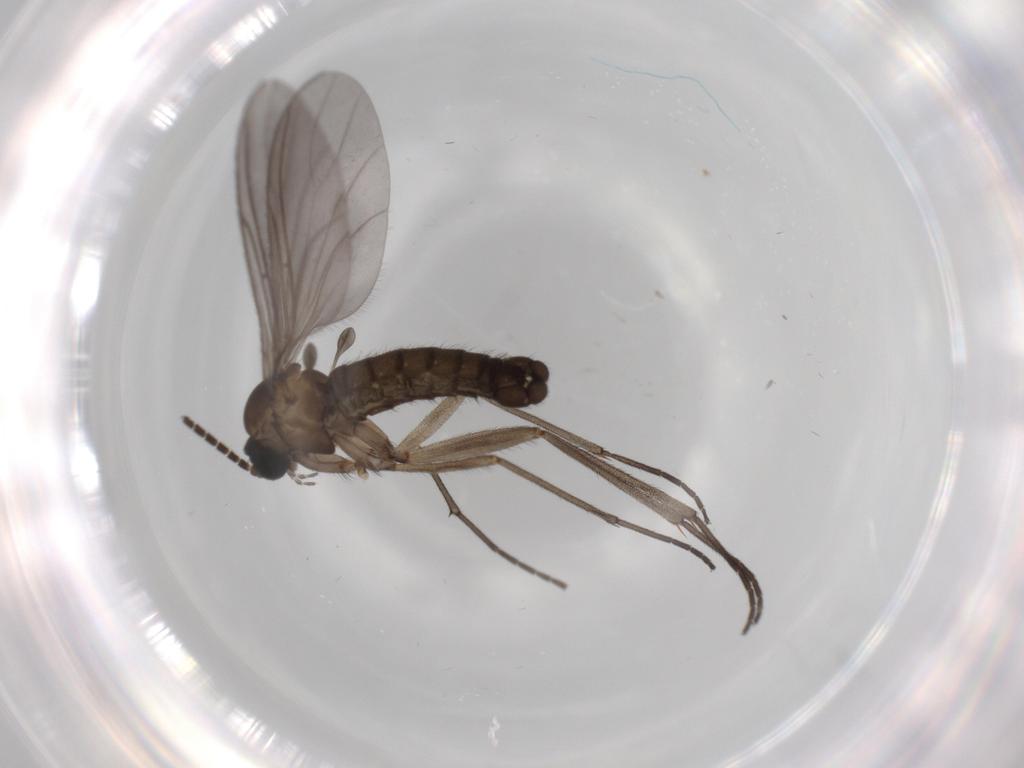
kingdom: Animalia
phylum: Arthropoda
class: Insecta
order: Diptera
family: Sciaridae
